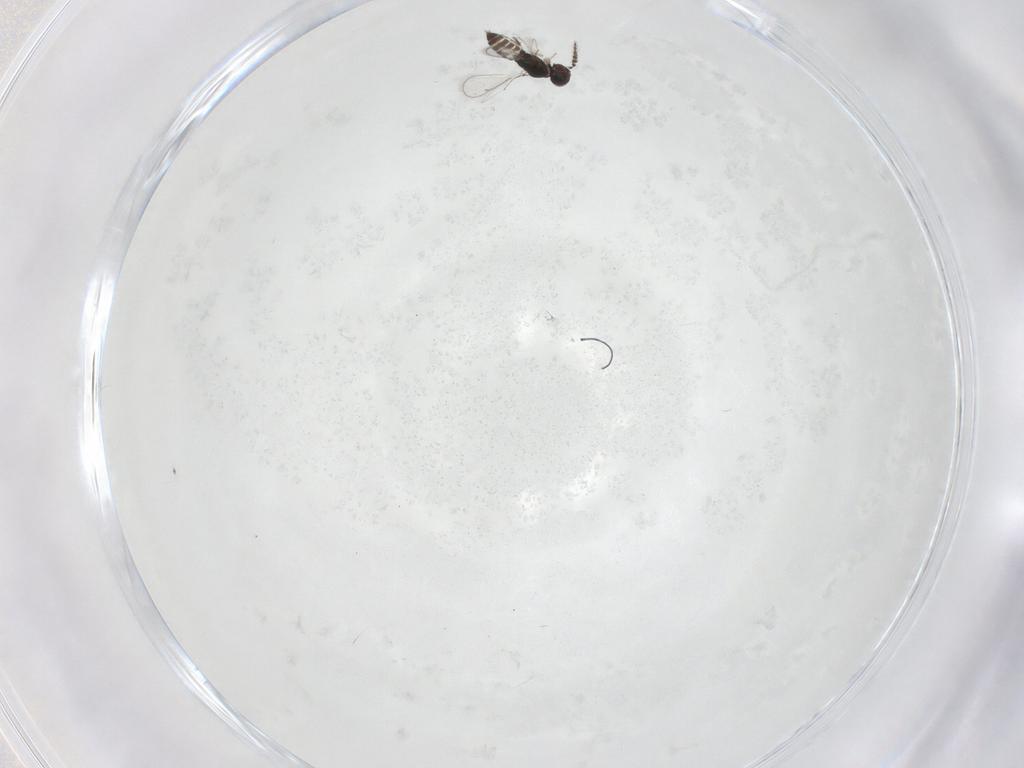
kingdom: Animalia
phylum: Arthropoda
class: Insecta
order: Hymenoptera
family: Eulophidae
